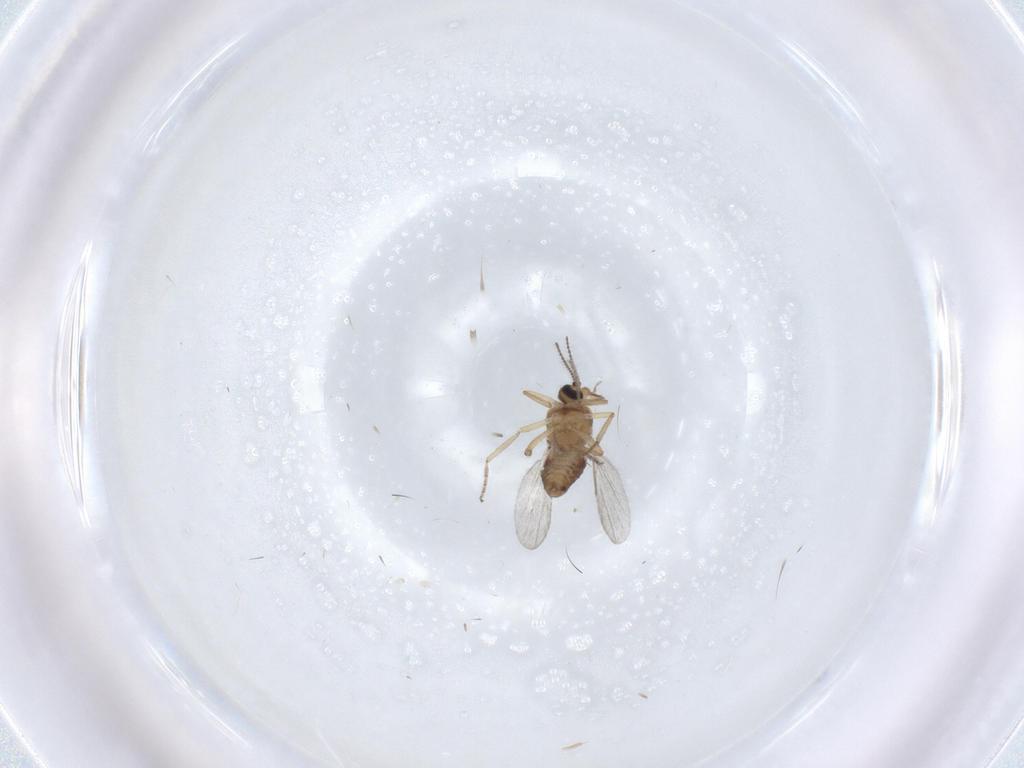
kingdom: Animalia
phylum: Arthropoda
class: Insecta
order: Diptera
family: Ceratopogonidae
